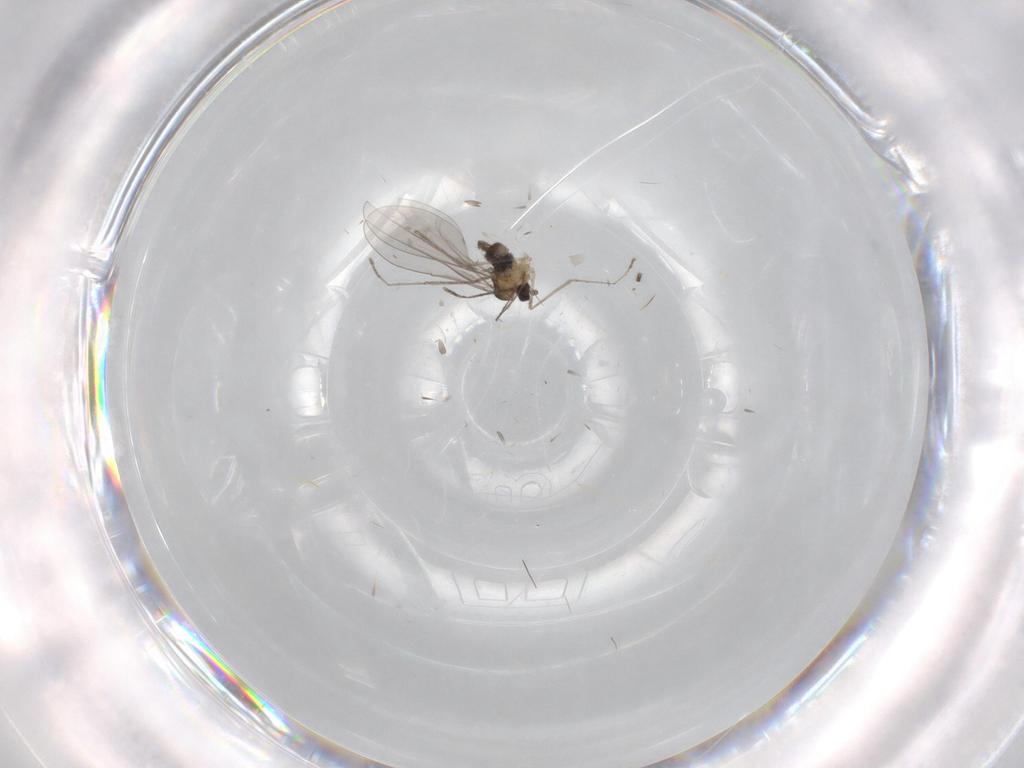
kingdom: Animalia
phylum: Arthropoda
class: Insecta
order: Diptera
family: Cecidomyiidae
